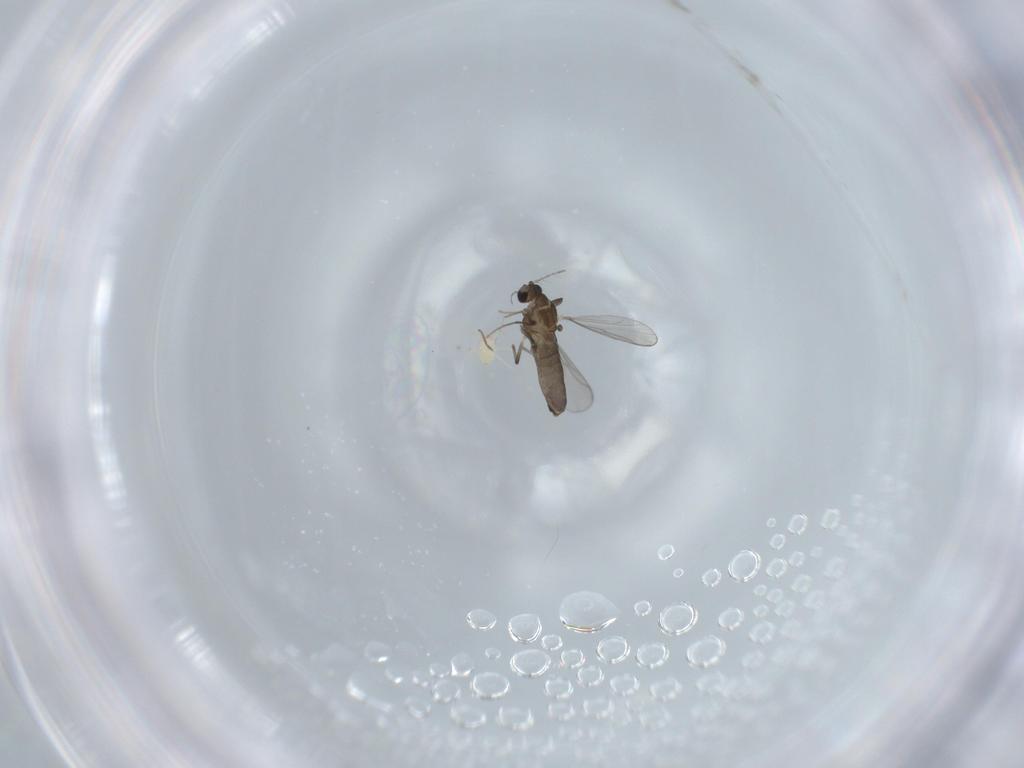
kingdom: Animalia
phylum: Arthropoda
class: Insecta
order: Diptera
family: Chironomidae
